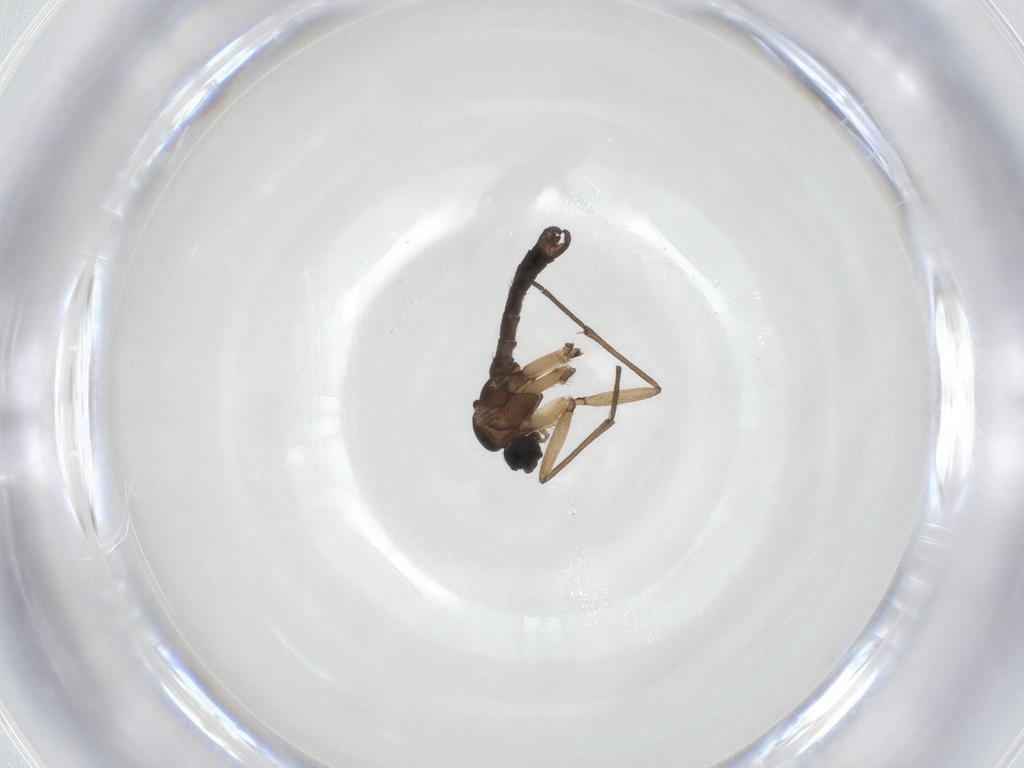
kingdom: Animalia
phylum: Arthropoda
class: Insecta
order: Diptera
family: Sciaridae
